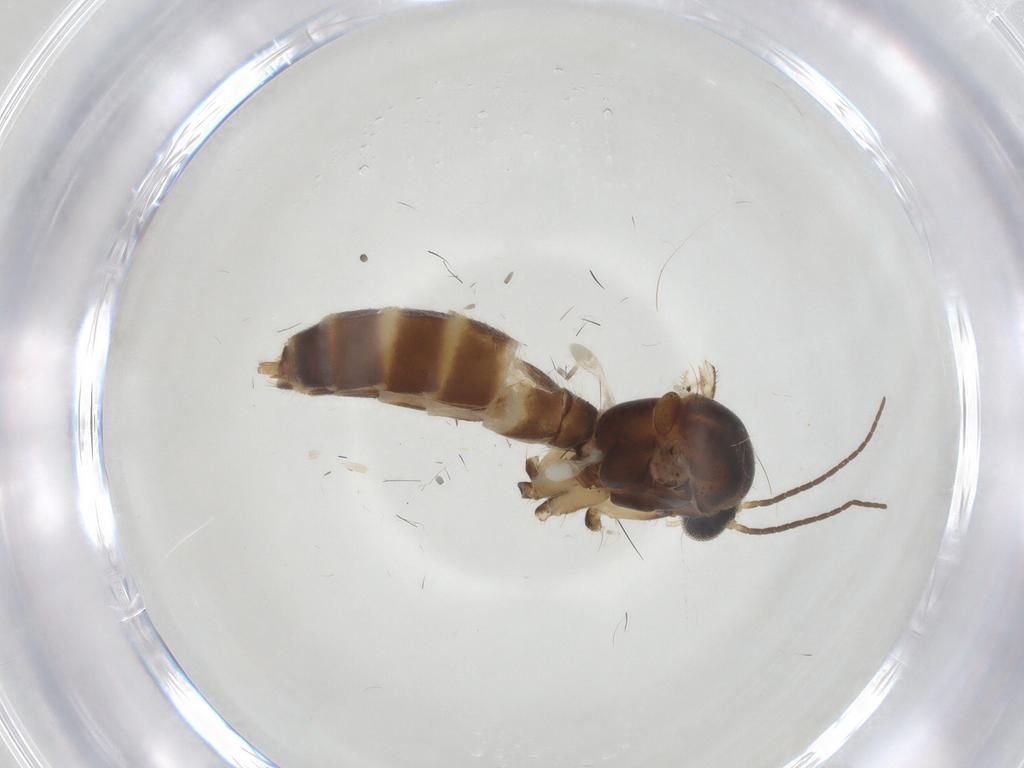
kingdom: Animalia
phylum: Arthropoda
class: Insecta
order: Diptera
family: Mycetophilidae
